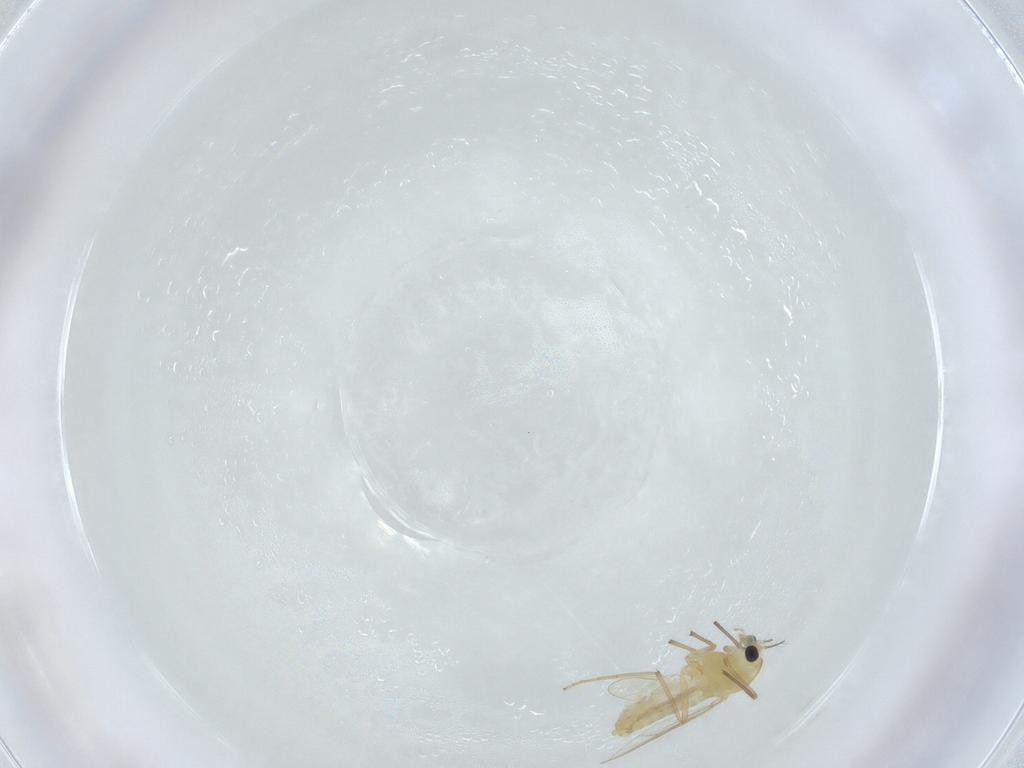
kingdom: Animalia
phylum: Arthropoda
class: Insecta
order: Diptera
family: Chironomidae
